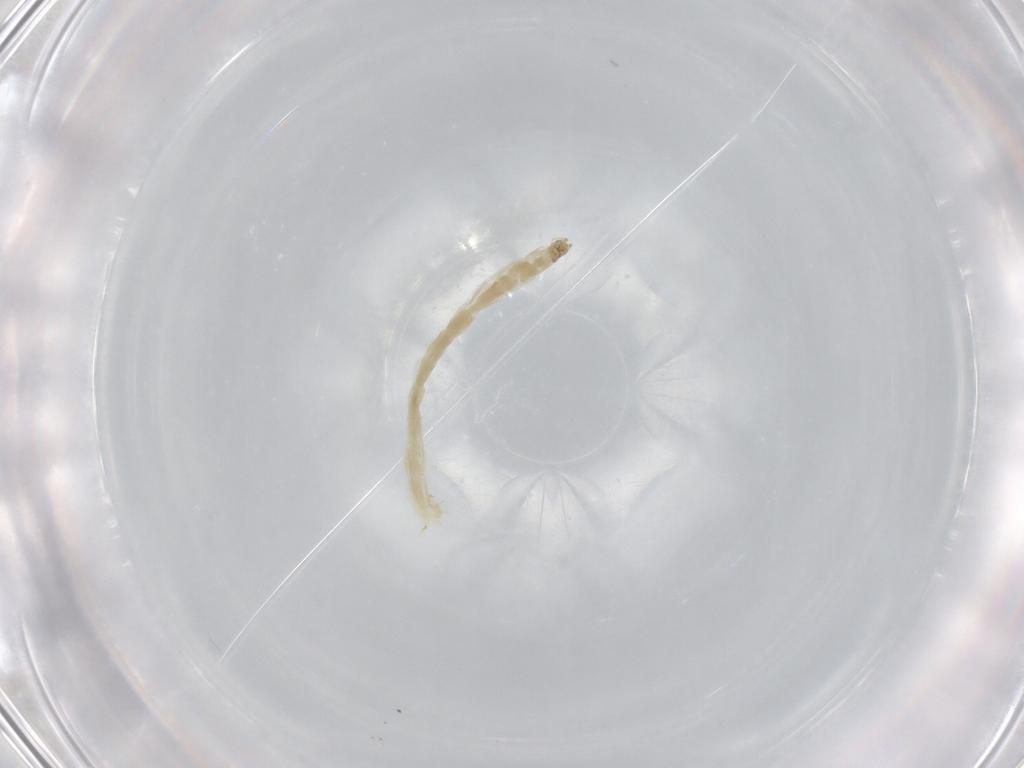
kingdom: Animalia
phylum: Arthropoda
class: Insecta
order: Diptera
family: Chironomidae
